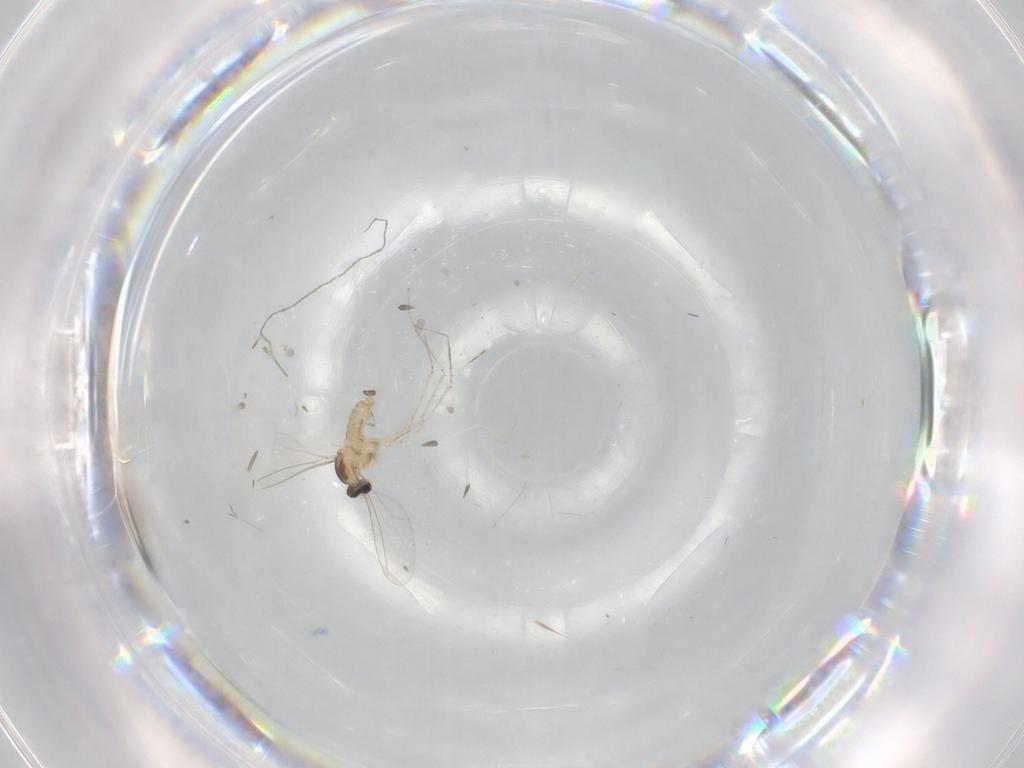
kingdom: Animalia
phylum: Arthropoda
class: Insecta
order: Diptera
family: Cecidomyiidae
